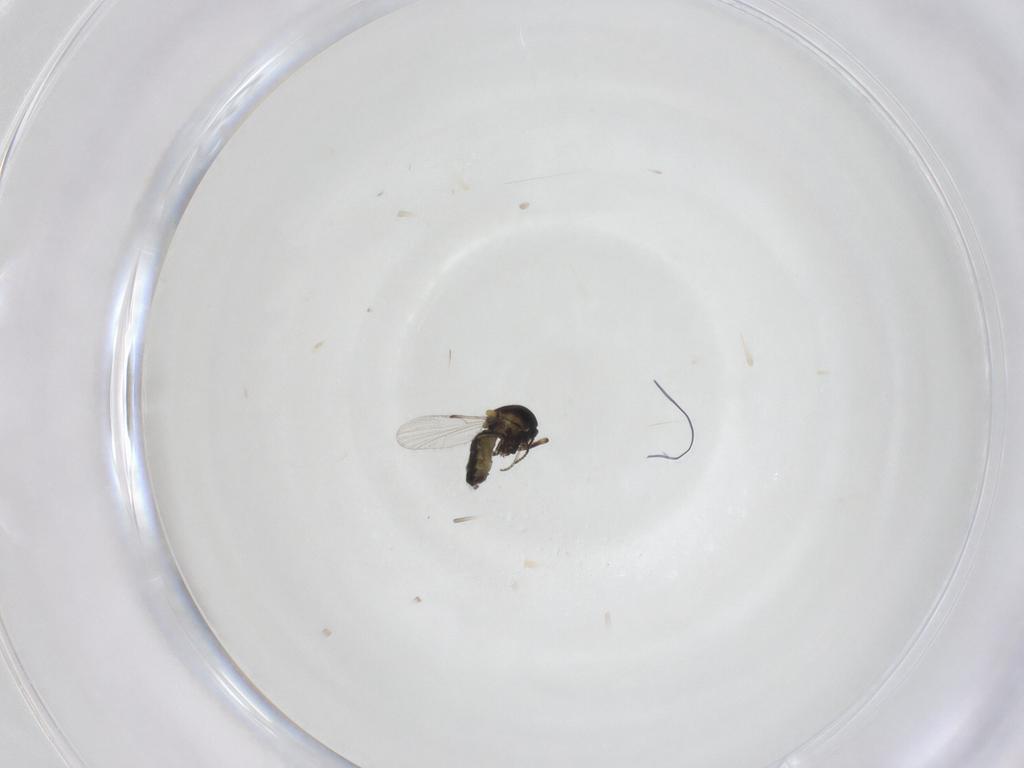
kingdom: Animalia
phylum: Arthropoda
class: Insecta
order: Diptera
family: Ceratopogonidae
